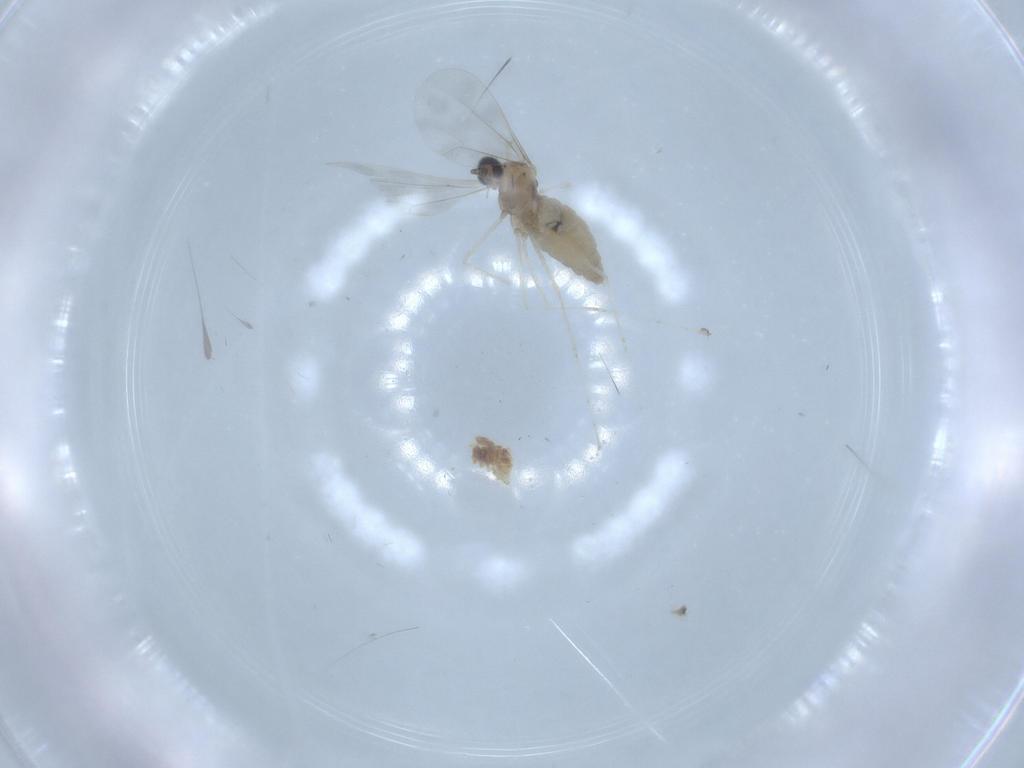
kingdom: Animalia
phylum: Arthropoda
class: Insecta
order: Diptera
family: Cecidomyiidae
